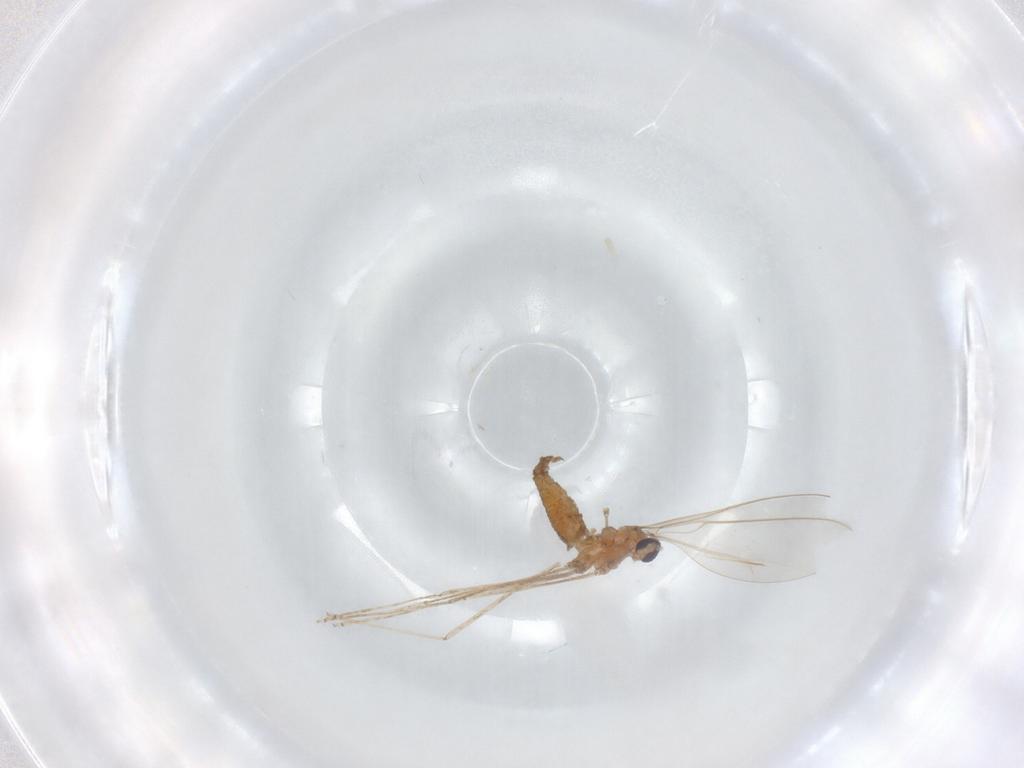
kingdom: Animalia
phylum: Arthropoda
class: Insecta
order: Diptera
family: Cecidomyiidae
